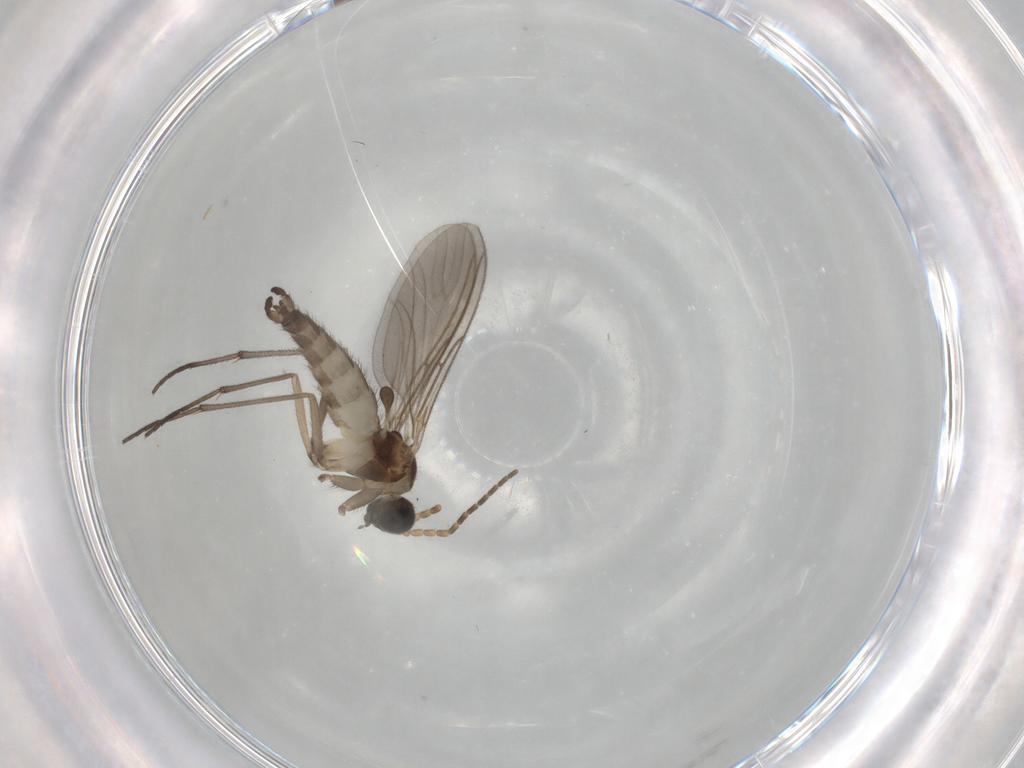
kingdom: Animalia
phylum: Arthropoda
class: Insecta
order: Diptera
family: Sciaridae
